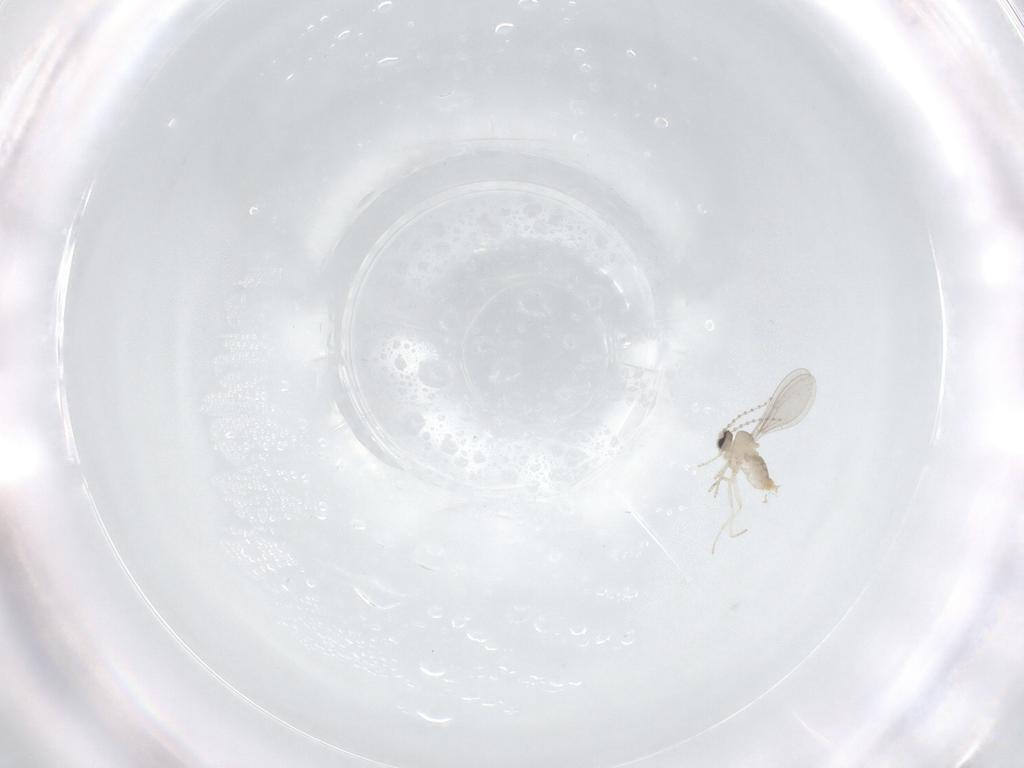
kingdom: Animalia
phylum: Arthropoda
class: Insecta
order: Diptera
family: Cecidomyiidae
